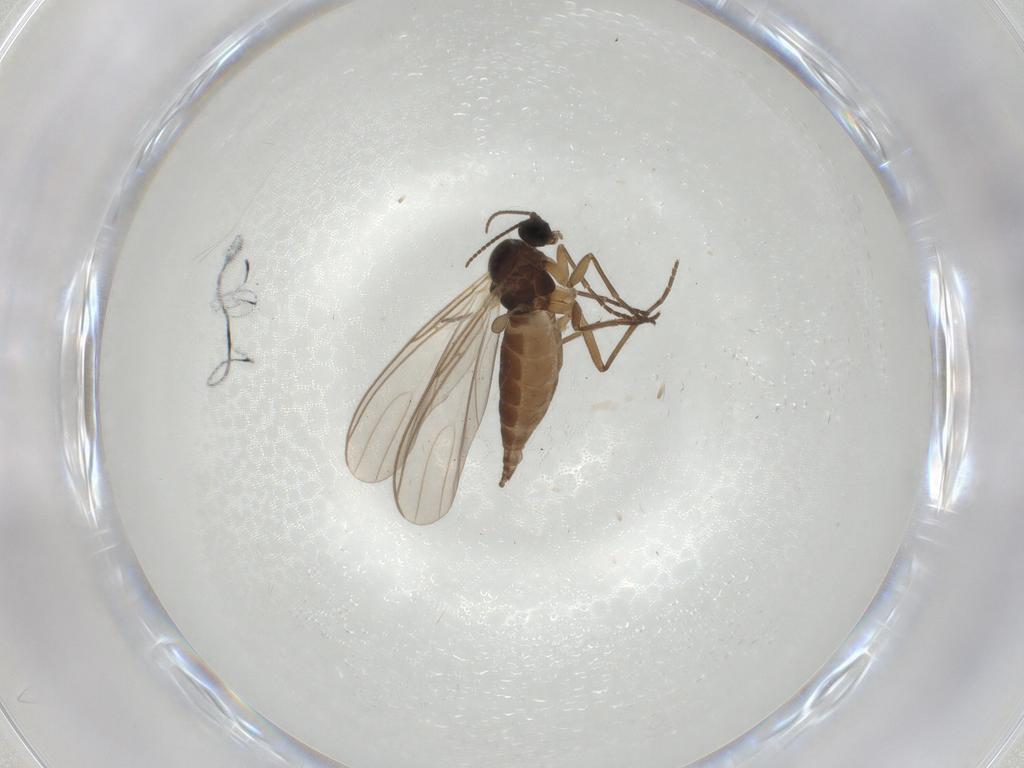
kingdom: Animalia
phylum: Arthropoda
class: Insecta
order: Diptera
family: Sciaridae
